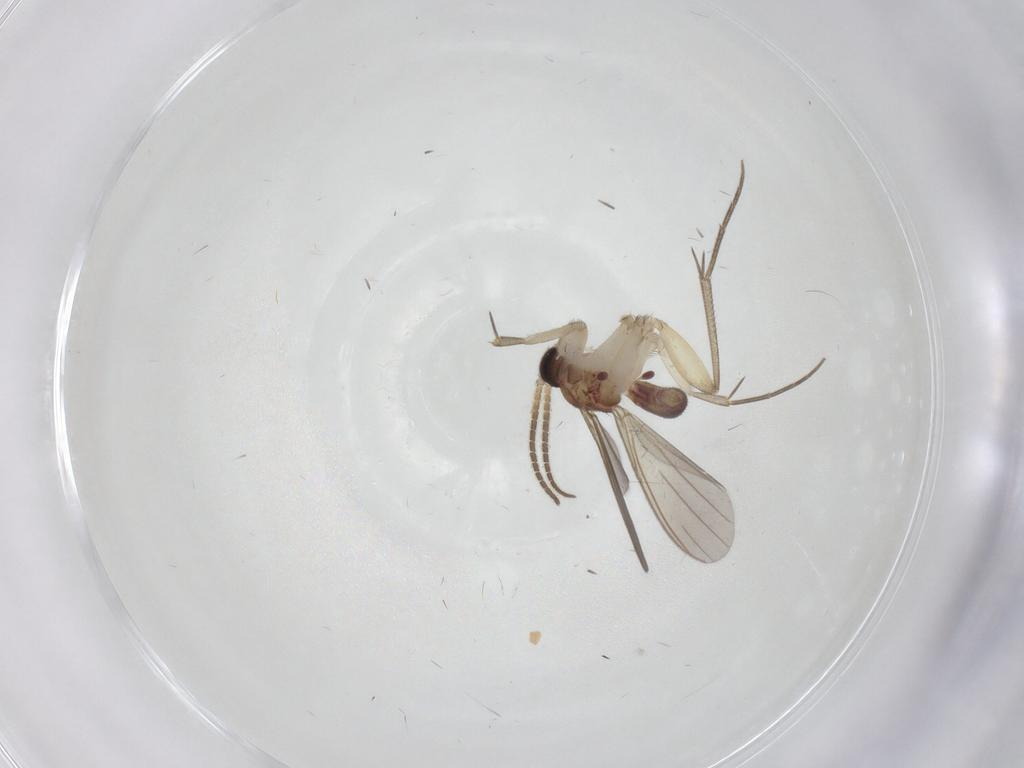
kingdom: Animalia
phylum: Arthropoda
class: Insecta
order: Diptera
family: Mycetophilidae
